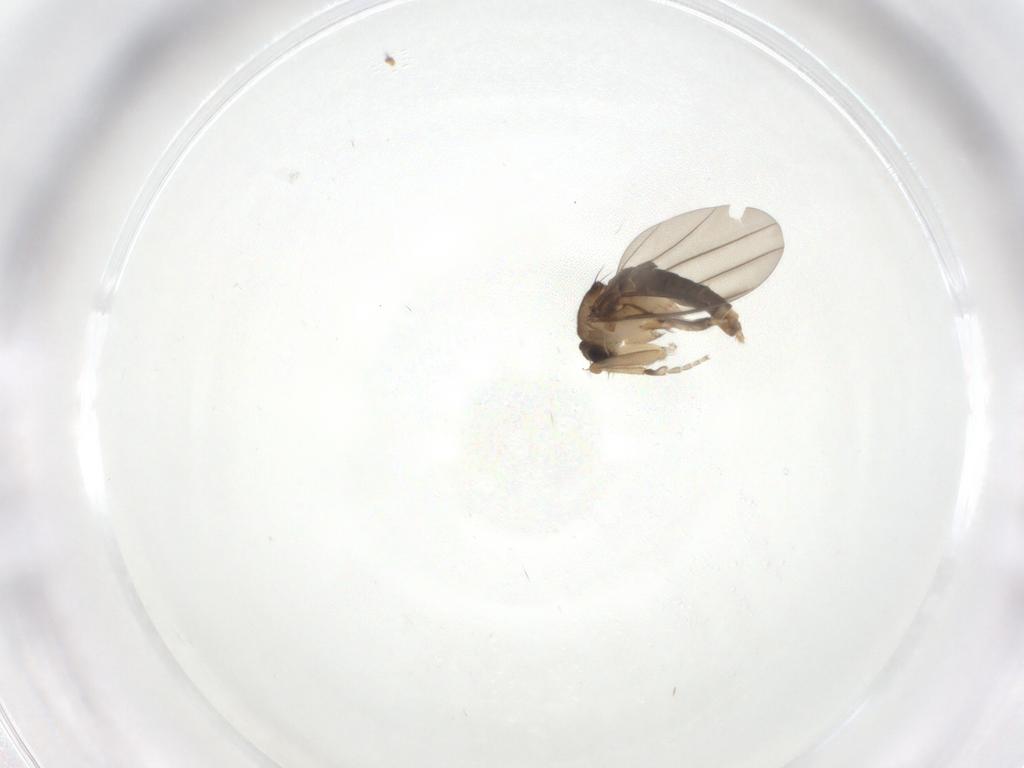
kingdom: Animalia
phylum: Arthropoda
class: Insecta
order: Diptera
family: Phoridae
